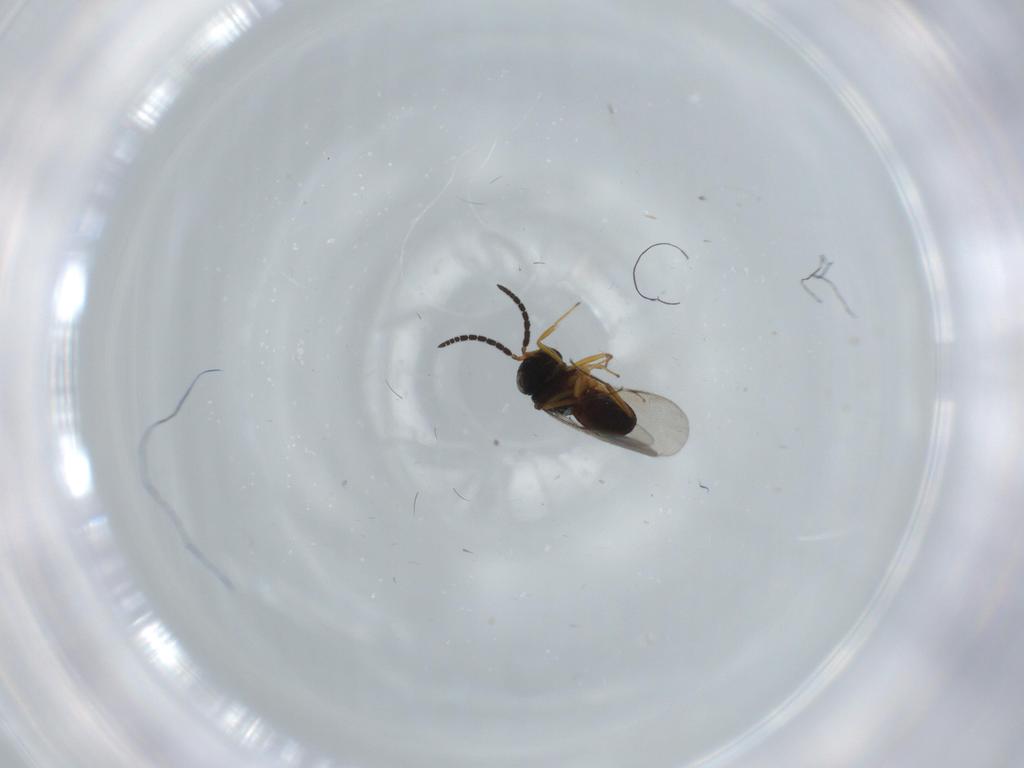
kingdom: Animalia
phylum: Arthropoda
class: Insecta
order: Coleoptera
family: Curculionidae
